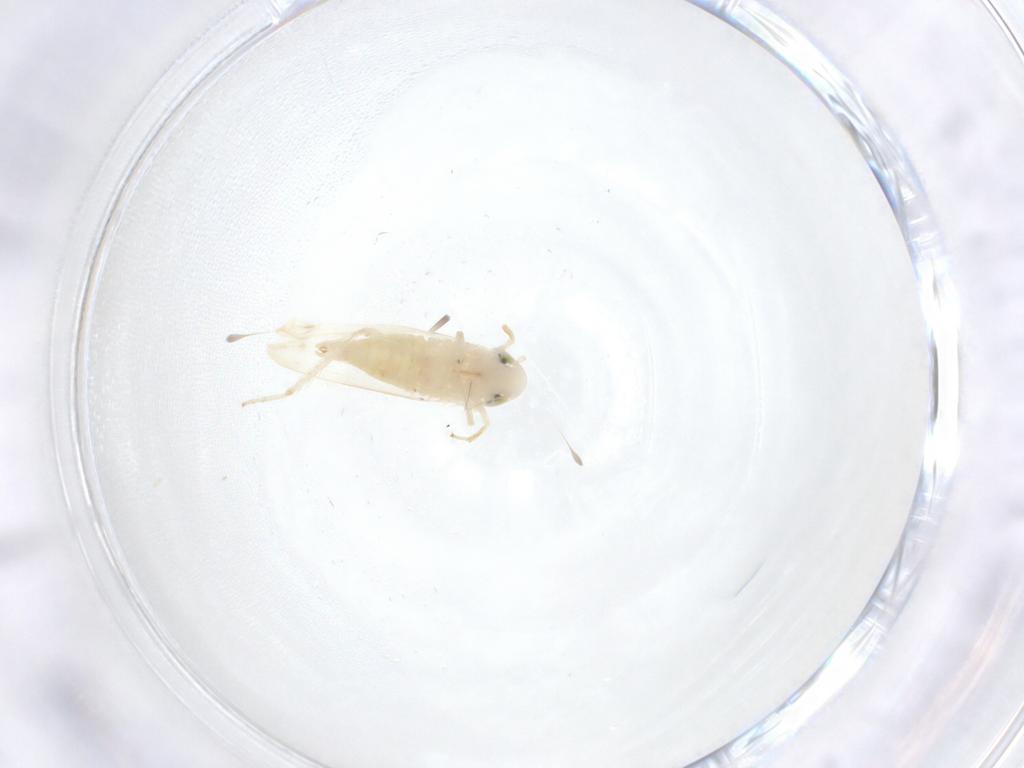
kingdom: Animalia
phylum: Arthropoda
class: Insecta
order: Hemiptera
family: Cicadellidae
